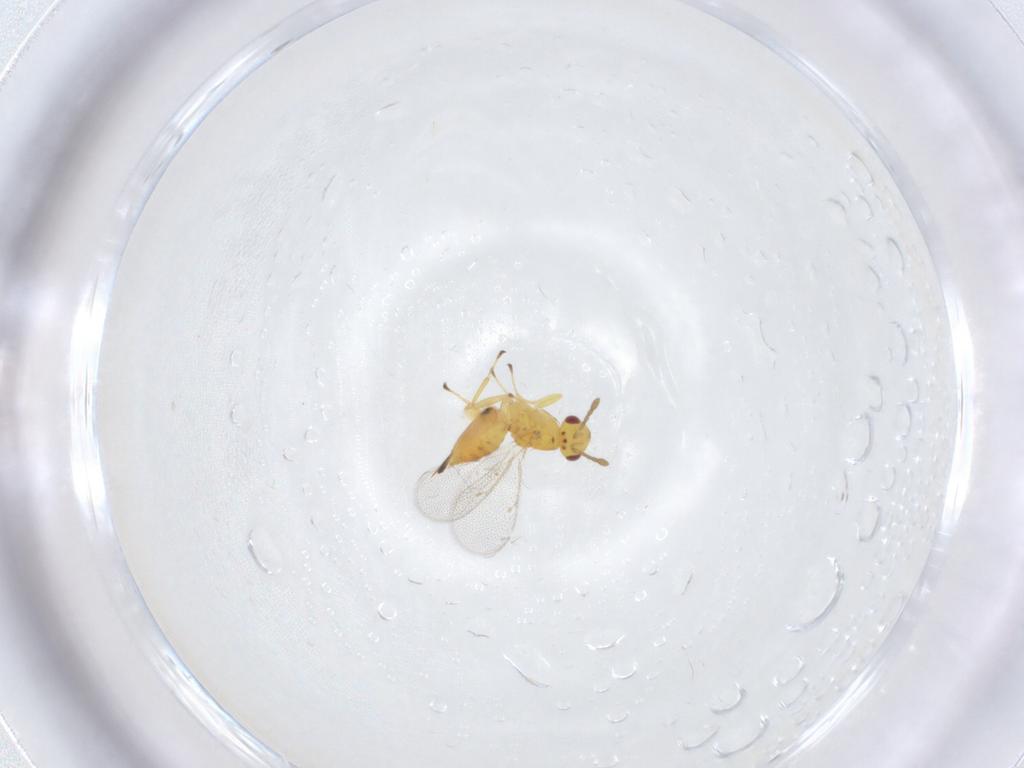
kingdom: Animalia
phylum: Arthropoda
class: Insecta
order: Hymenoptera
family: Eulophidae
